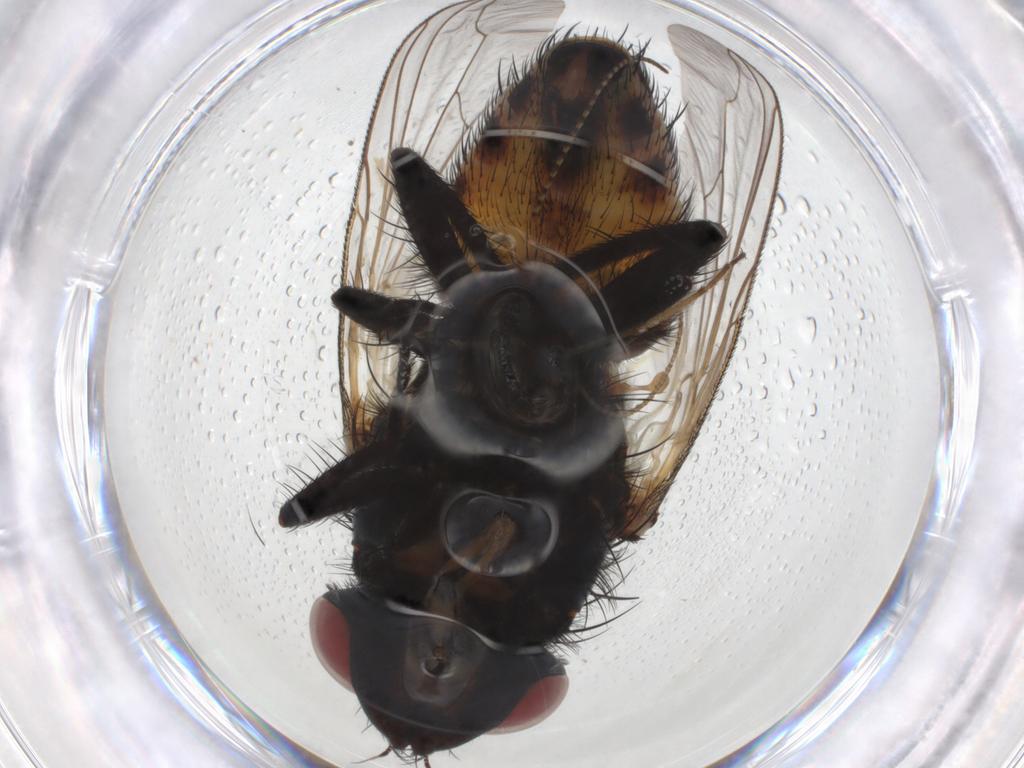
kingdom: Animalia
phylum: Arthropoda
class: Insecta
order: Diptera
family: Sarcophagidae
